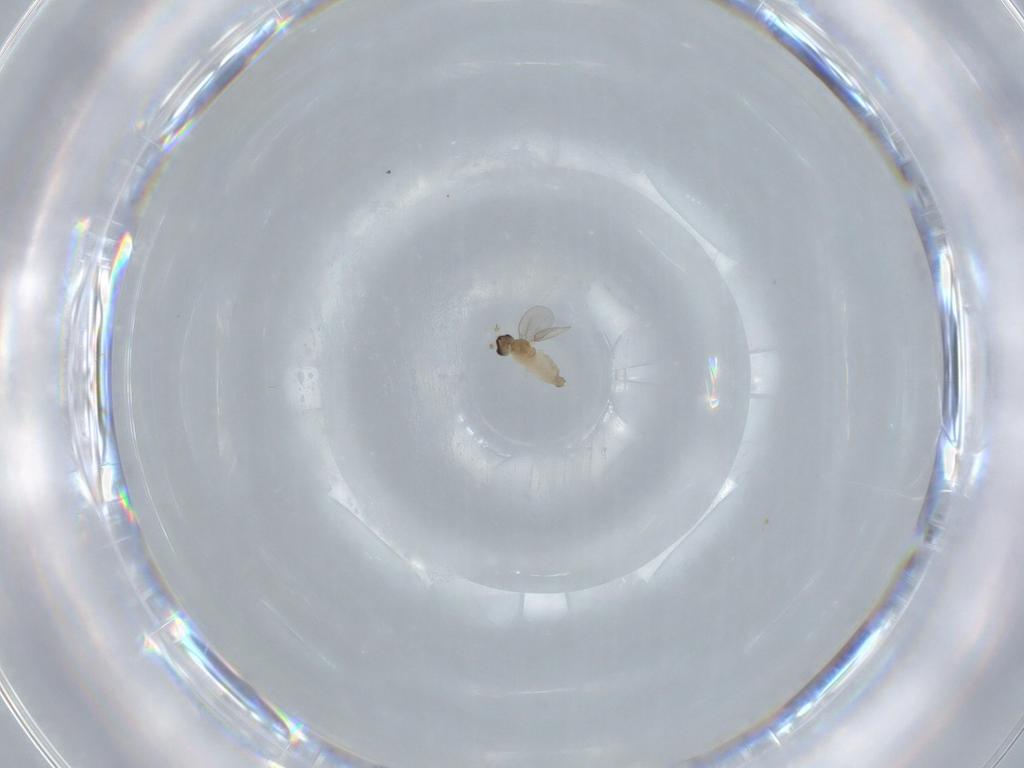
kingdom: Animalia
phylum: Arthropoda
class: Insecta
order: Diptera
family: Cecidomyiidae
